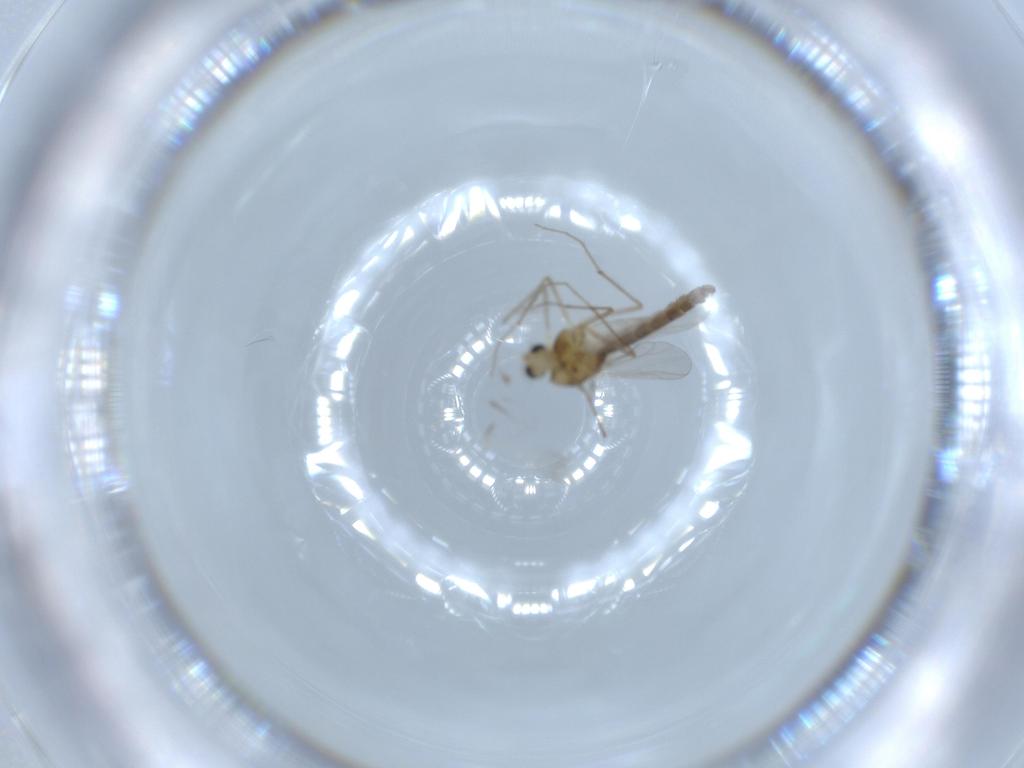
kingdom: Animalia
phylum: Arthropoda
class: Insecta
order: Diptera
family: Chironomidae
